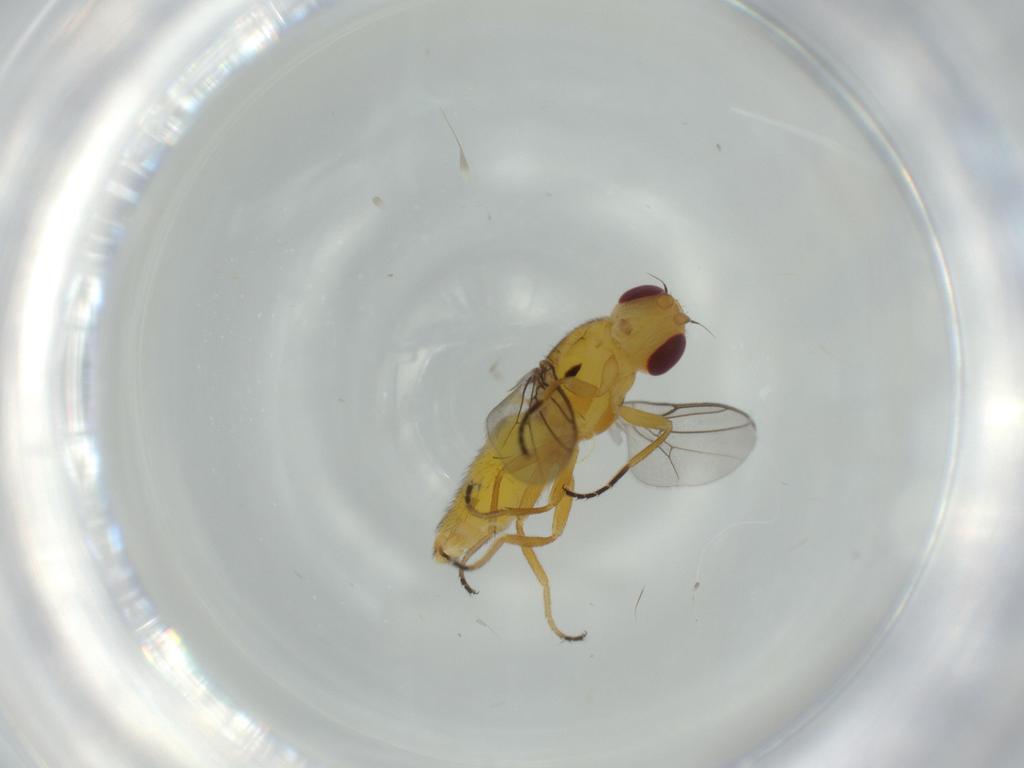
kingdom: Animalia
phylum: Arthropoda
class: Insecta
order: Diptera
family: Chloropidae
